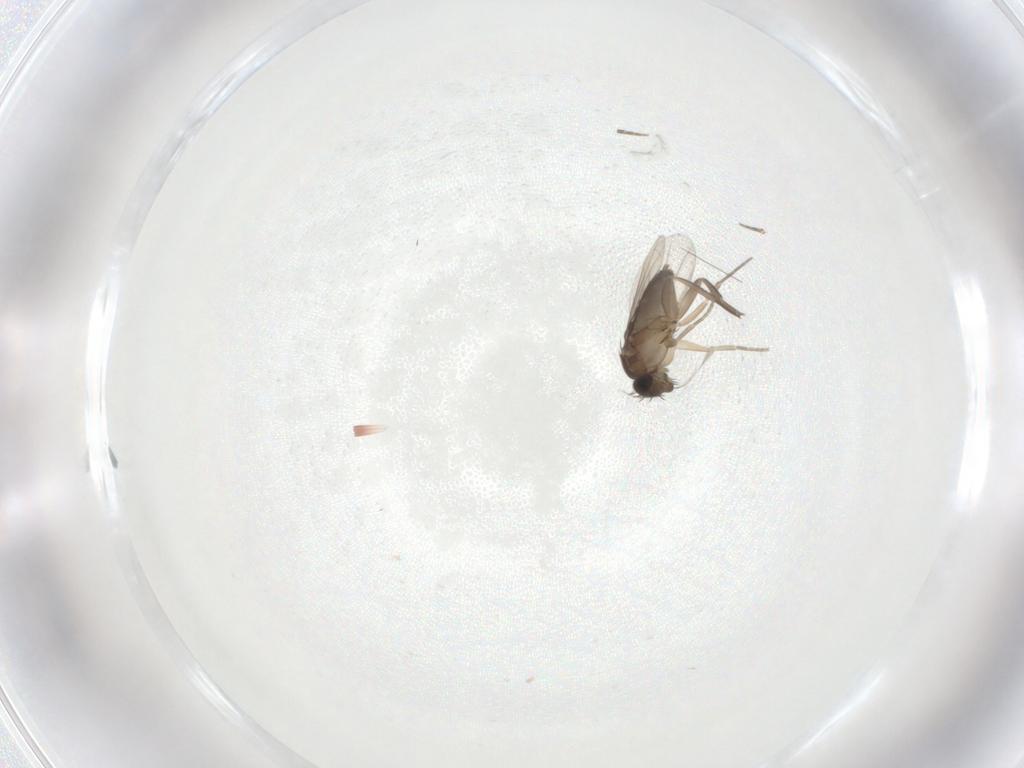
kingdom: Animalia
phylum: Arthropoda
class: Insecta
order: Diptera
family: Phoridae
